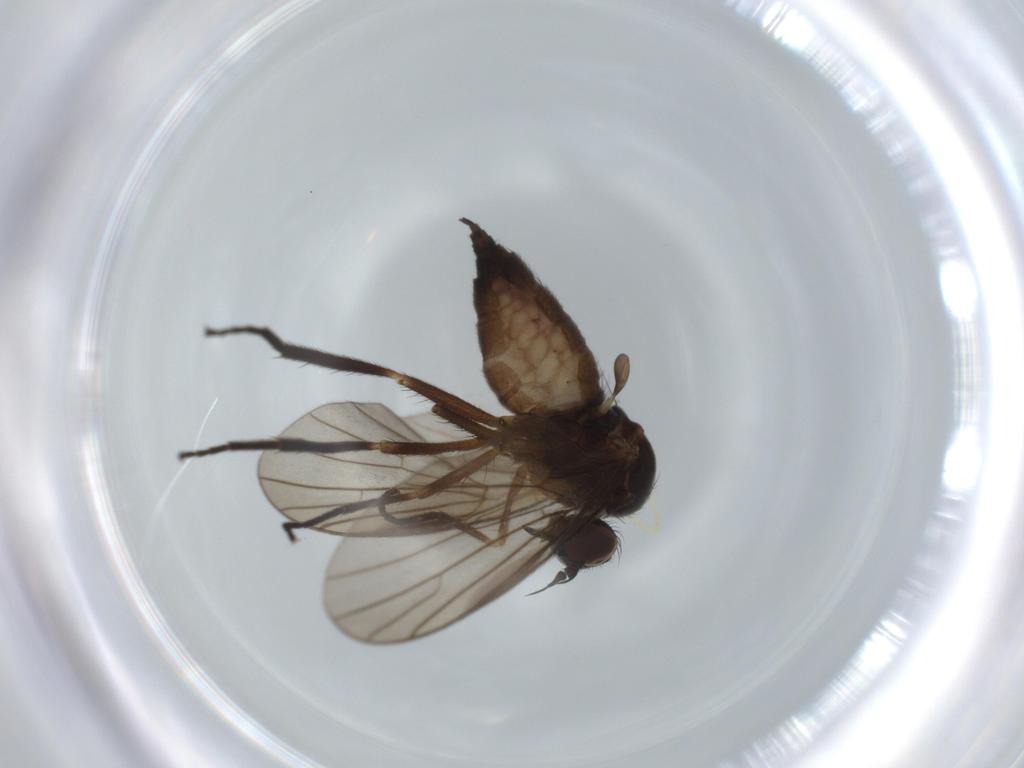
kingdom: Animalia
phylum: Arthropoda
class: Insecta
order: Diptera
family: Empididae
